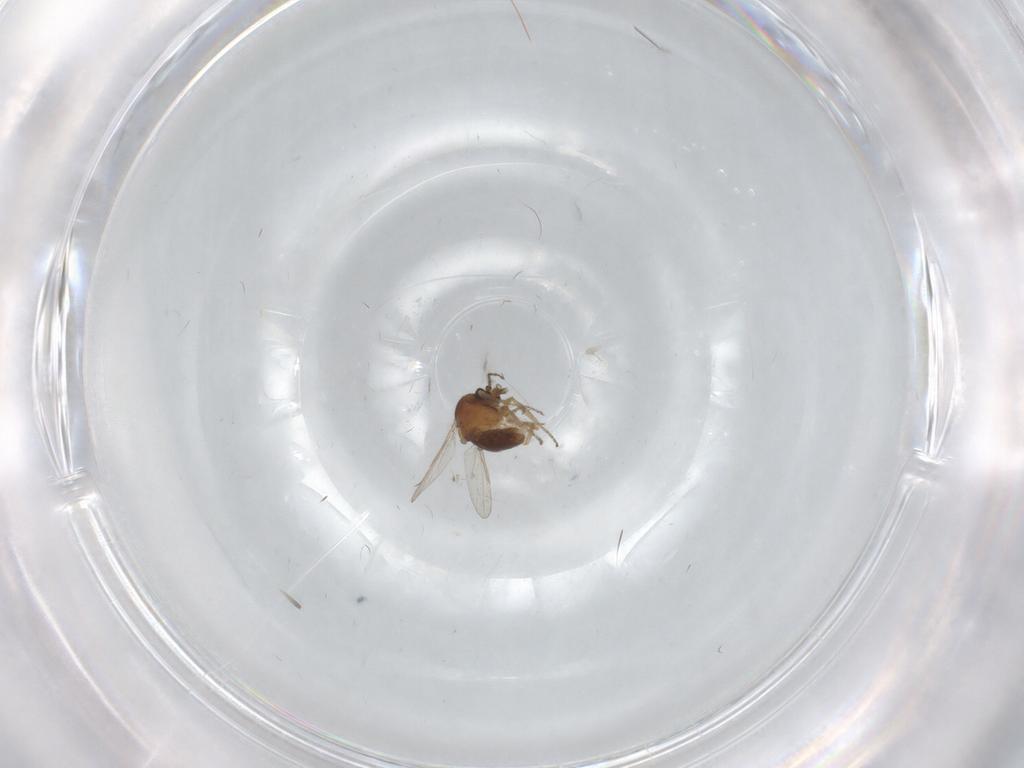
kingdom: Animalia
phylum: Arthropoda
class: Insecta
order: Diptera
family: Ceratopogonidae
